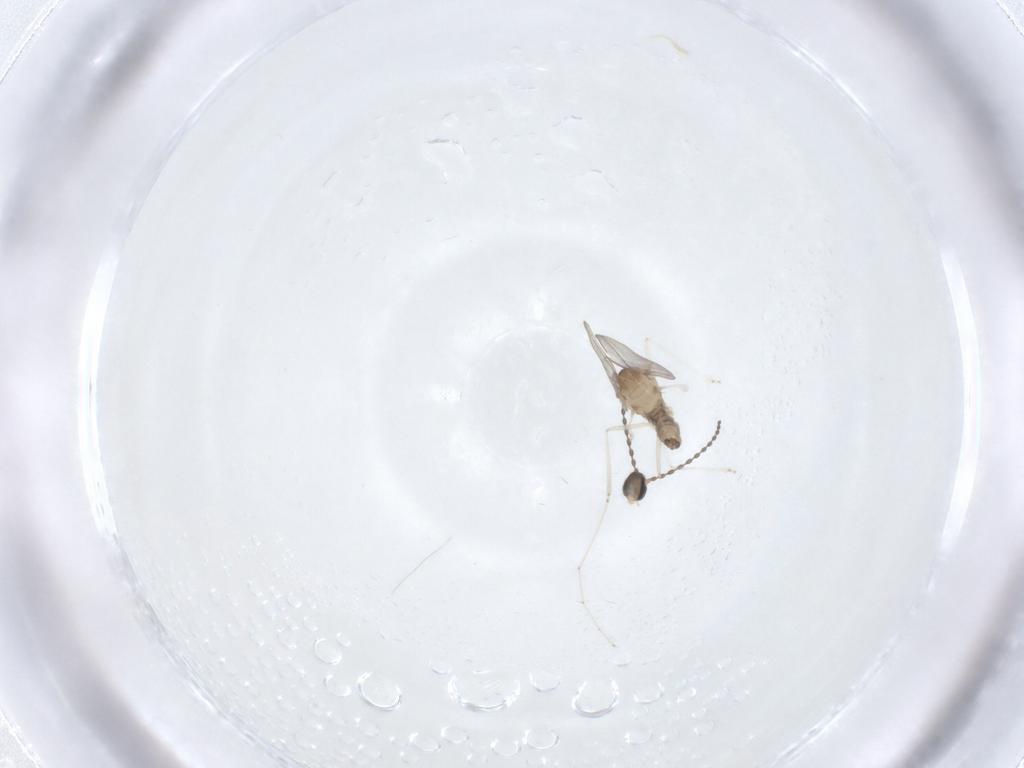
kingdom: Animalia
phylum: Arthropoda
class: Insecta
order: Diptera
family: Cecidomyiidae
